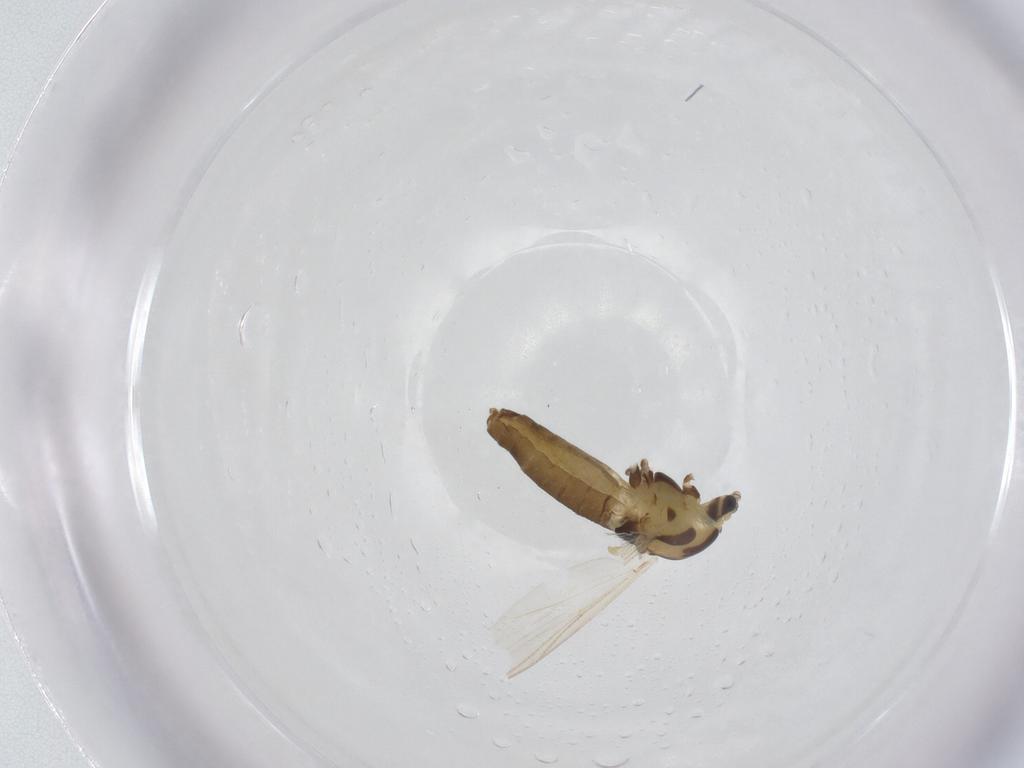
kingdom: Animalia
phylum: Arthropoda
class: Insecta
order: Diptera
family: Chironomidae
